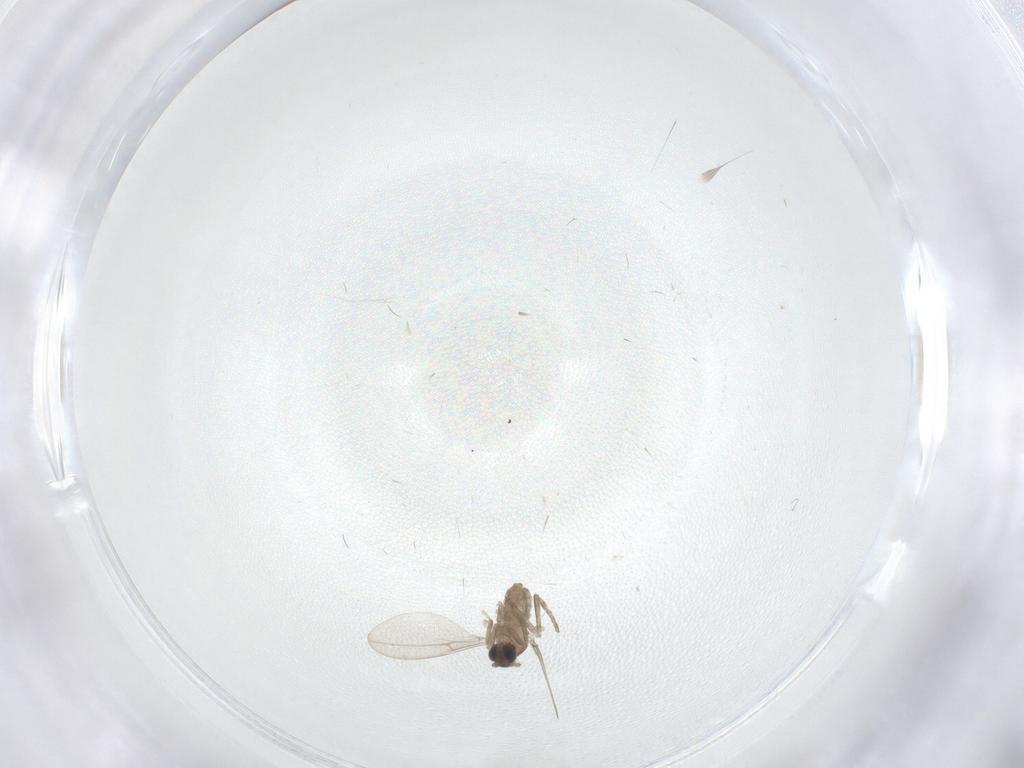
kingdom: Animalia
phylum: Arthropoda
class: Insecta
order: Diptera
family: Cecidomyiidae
